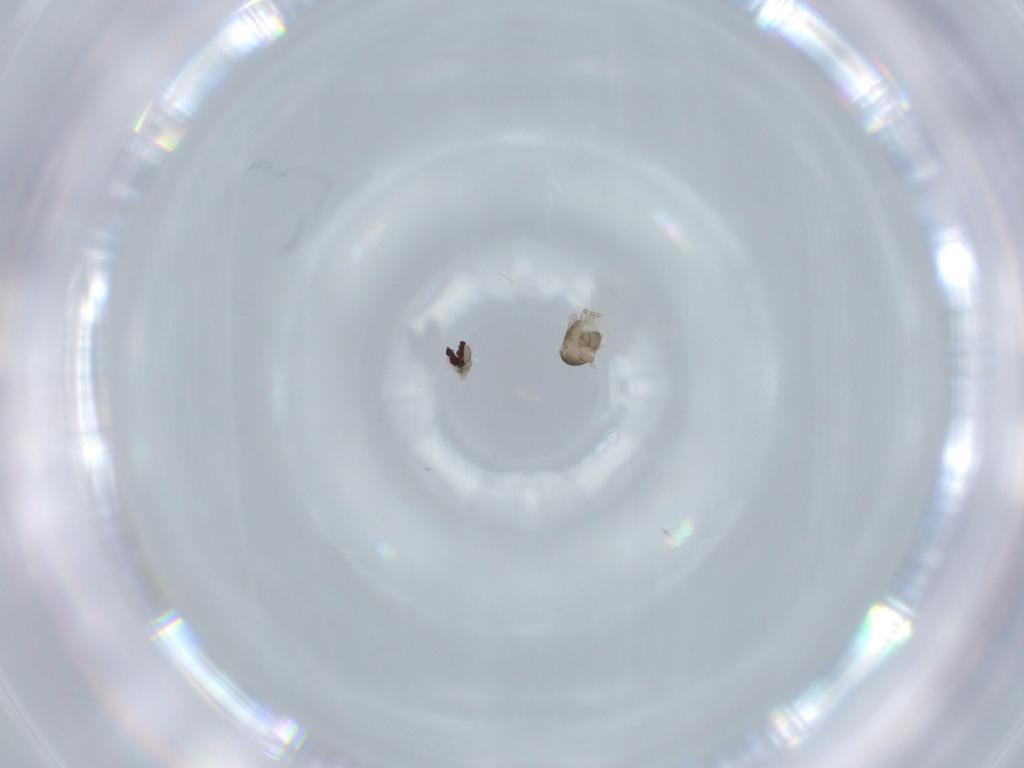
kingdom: Animalia
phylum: Arthropoda
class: Insecta
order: Diptera
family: Cecidomyiidae
